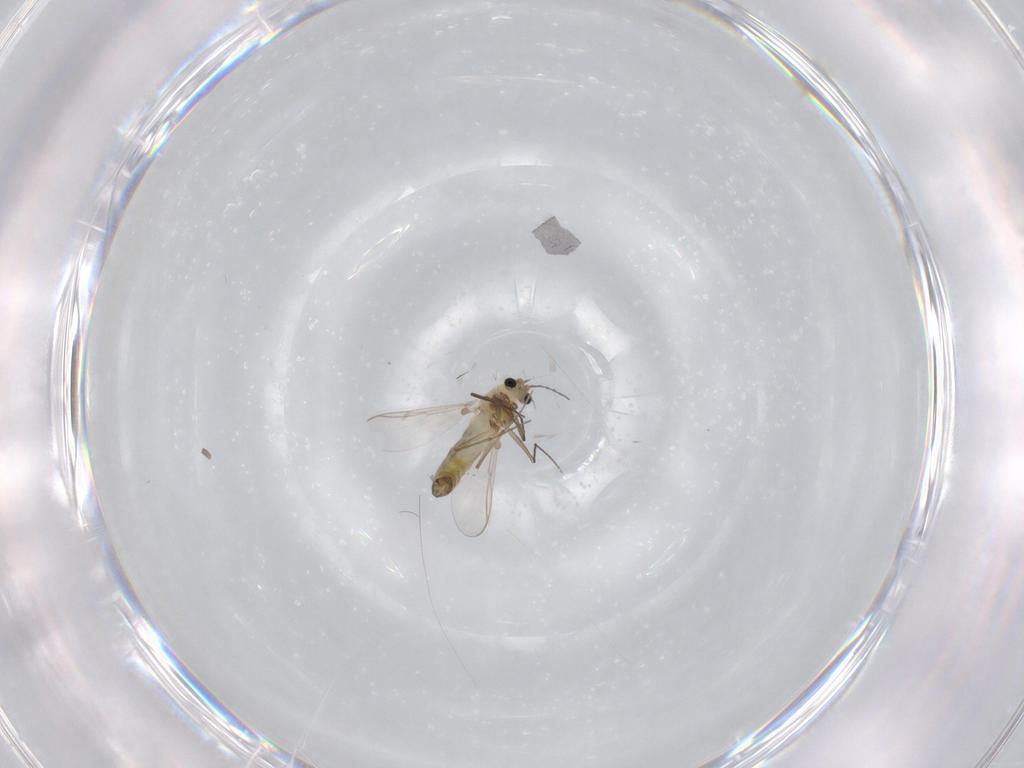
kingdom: Animalia
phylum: Arthropoda
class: Insecta
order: Diptera
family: Chironomidae
